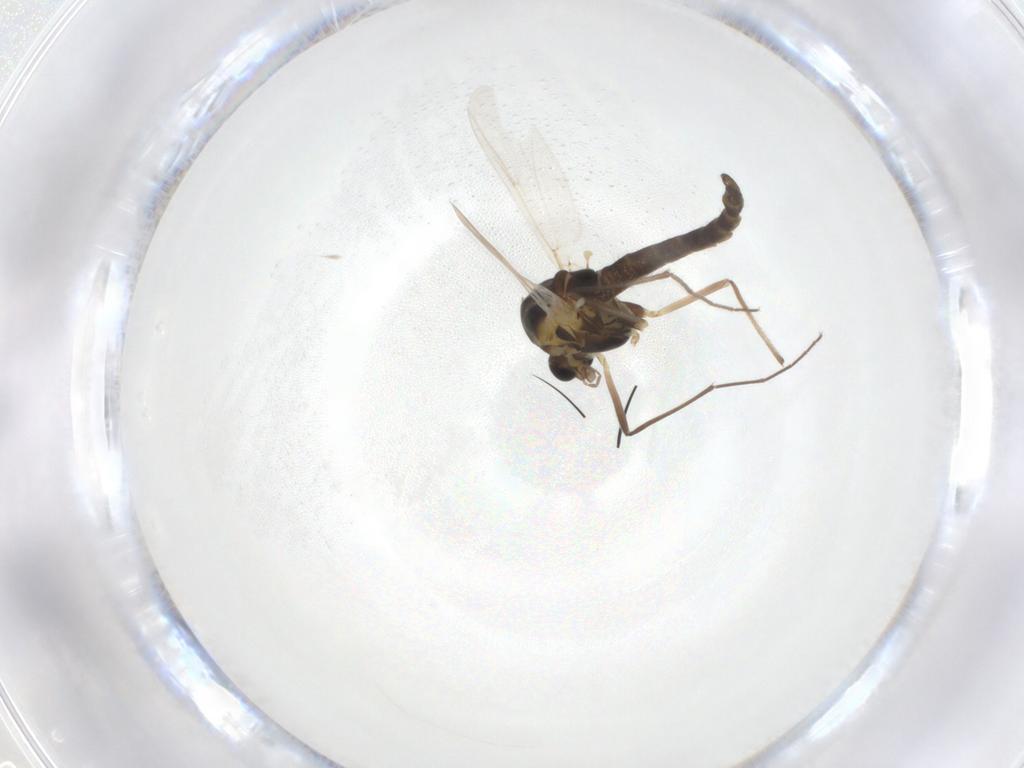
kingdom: Animalia
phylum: Arthropoda
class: Insecta
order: Diptera
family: Chironomidae
